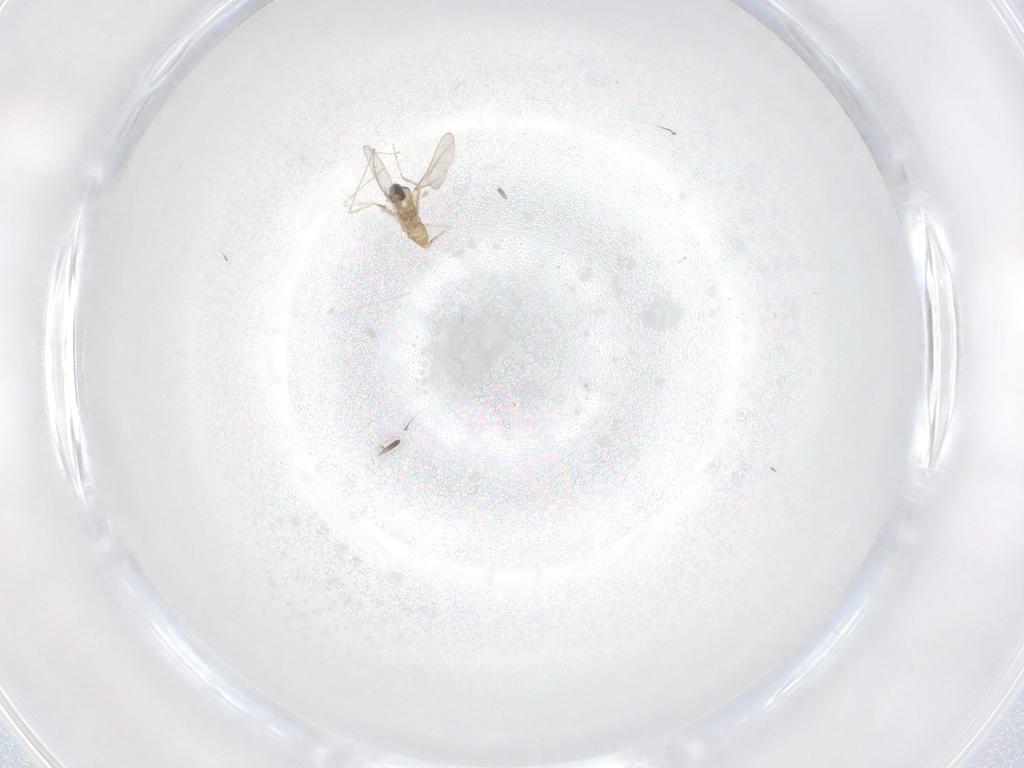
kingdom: Animalia
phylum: Arthropoda
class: Insecta
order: Diptera
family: Cecidomyiidae
